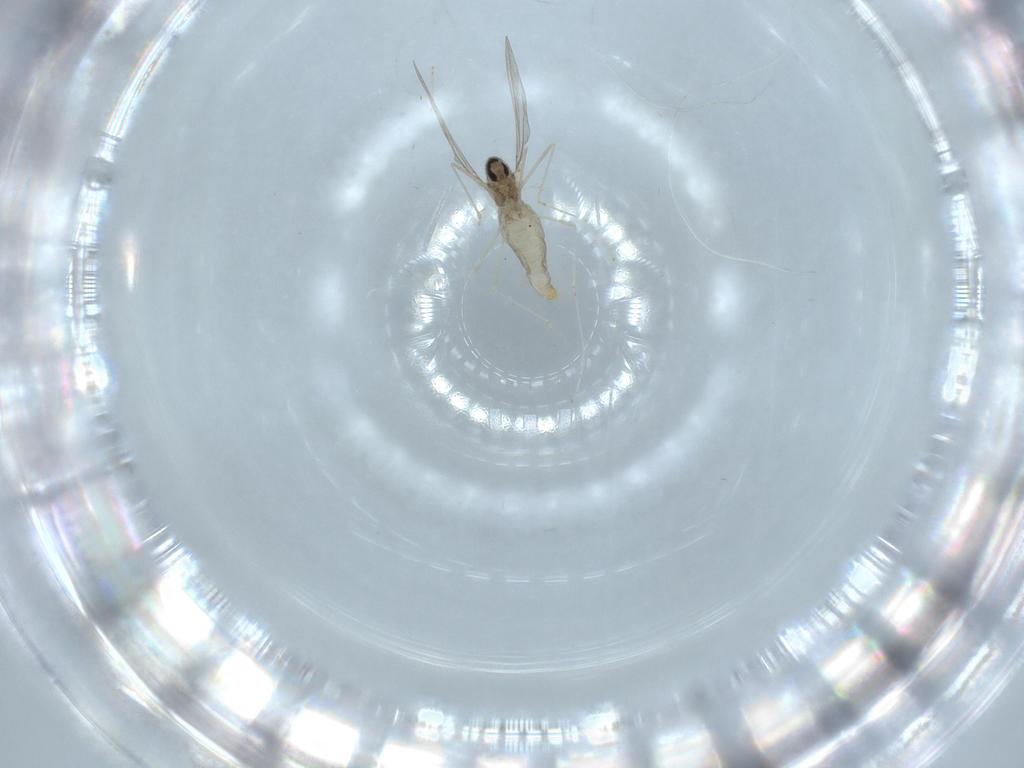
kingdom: Animalia
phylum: Arthropoda
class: Insecta
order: Diptera
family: Cecidomyiidae
